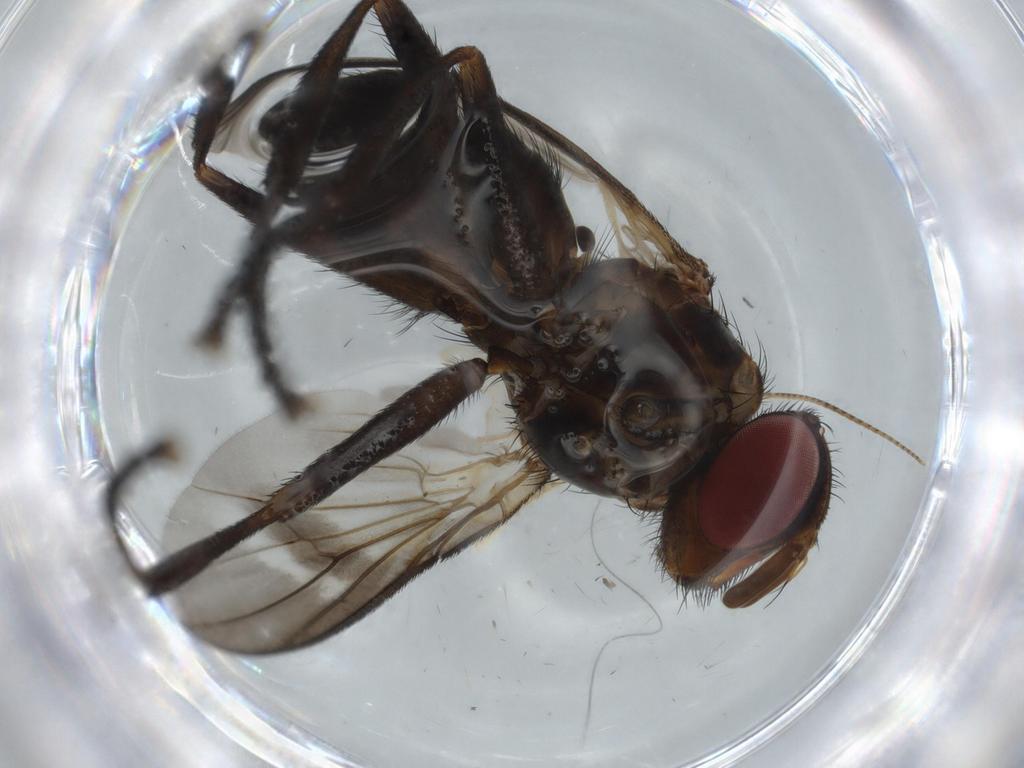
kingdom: Animalia
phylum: Arthropoda
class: Insecta
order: Diptera
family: Calliphoridae
